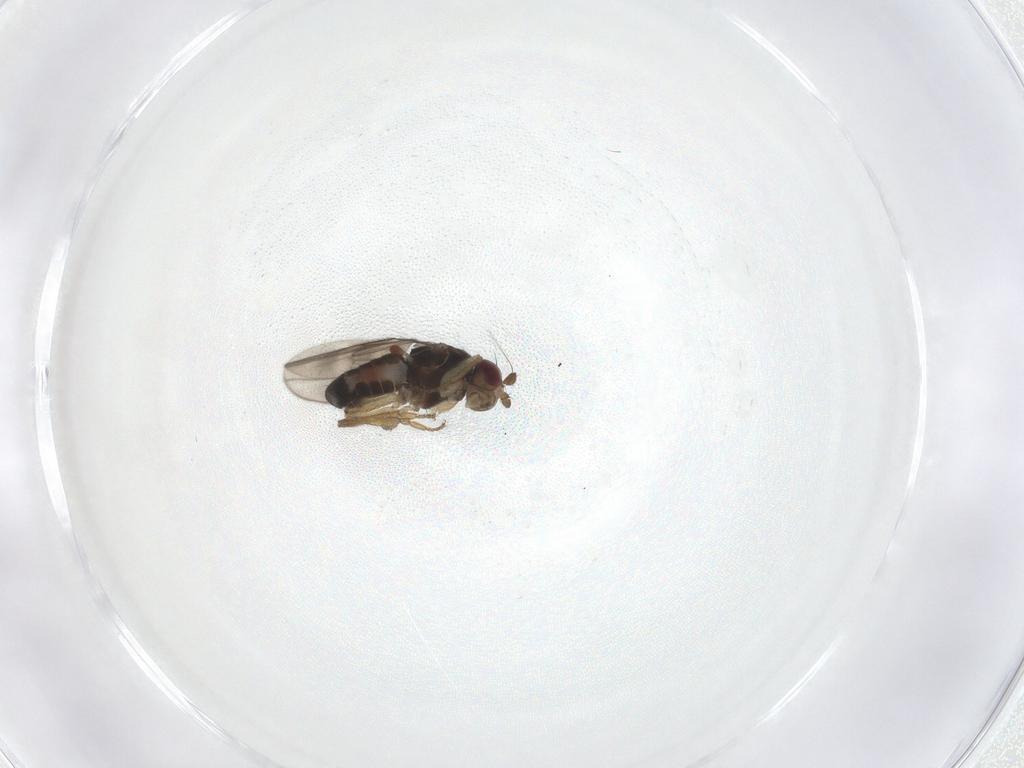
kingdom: Animalia
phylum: Arthropoda
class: Insecta
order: Diptera
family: Sphaeroceridae
